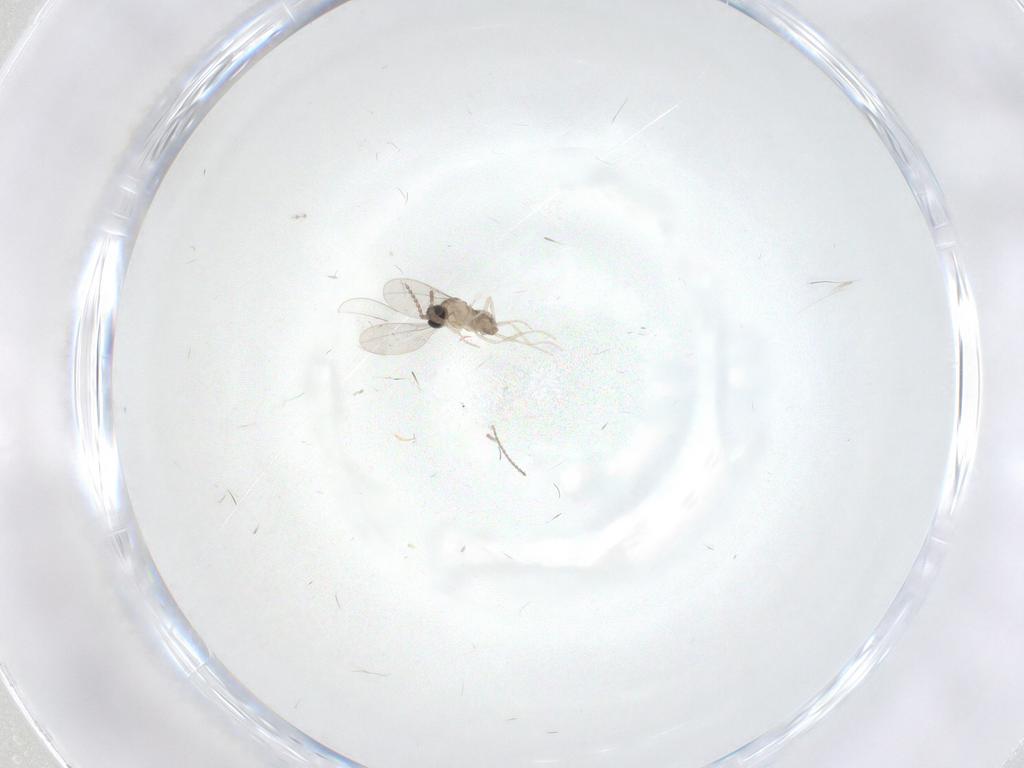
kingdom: Animalia
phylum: Arthropoda
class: Insecta
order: Diptera
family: Cecidomyiidae
